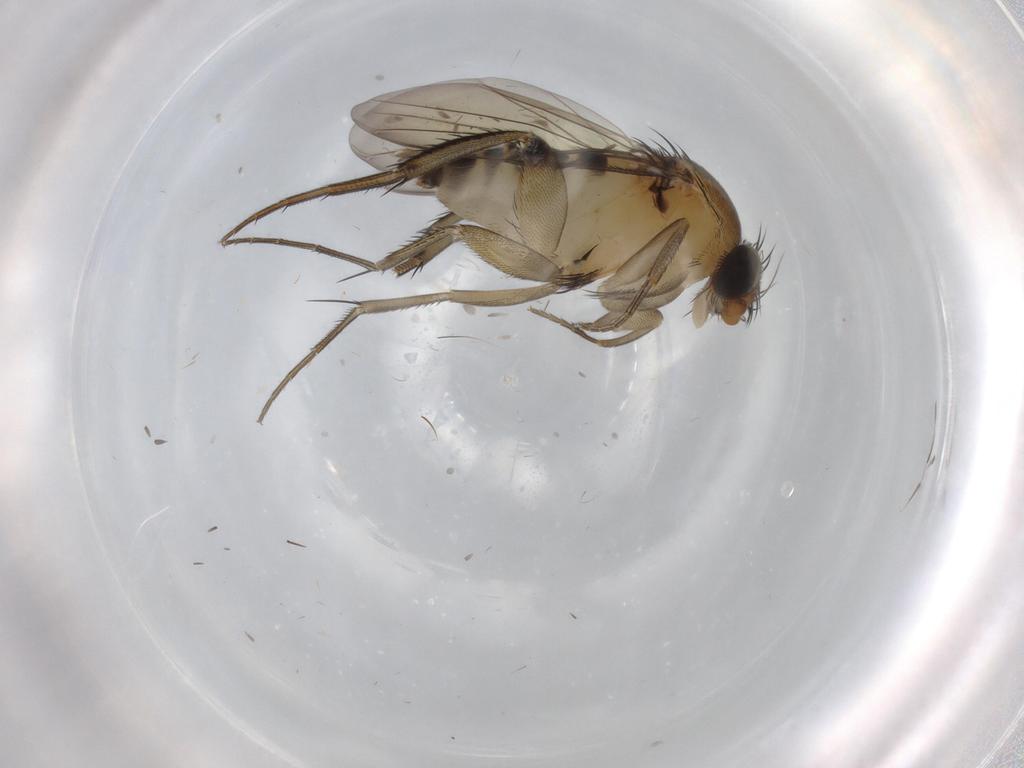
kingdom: Animalia
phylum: Arthropoda
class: Insecta
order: Diptera
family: Phoridae
